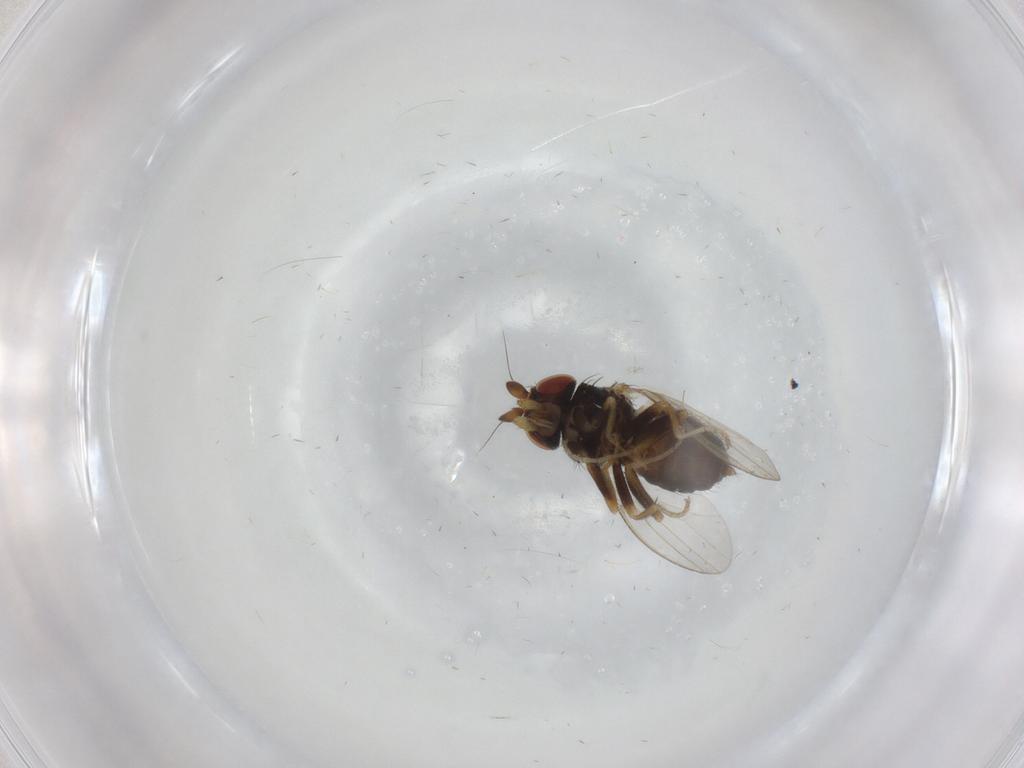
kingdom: Animalia
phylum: Arthropoda
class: Insecta
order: Diptera
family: Milichiidae
